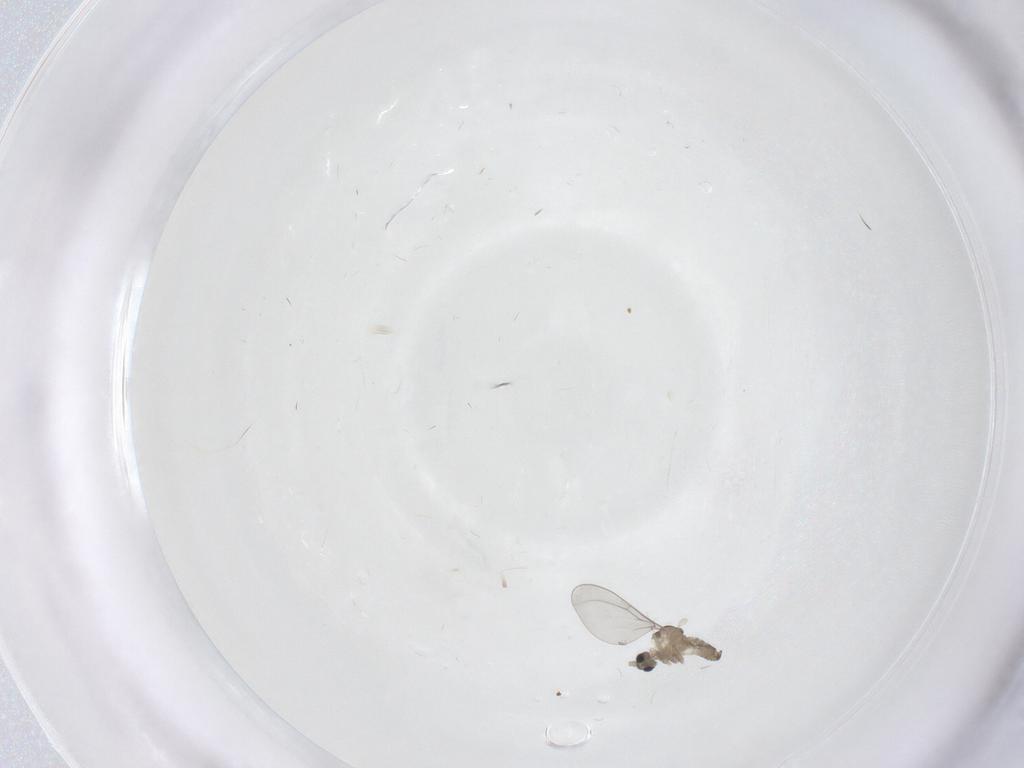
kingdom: Animalia
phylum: Arthropoda
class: Insecta
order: Diptera
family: Cecidomyiidae
